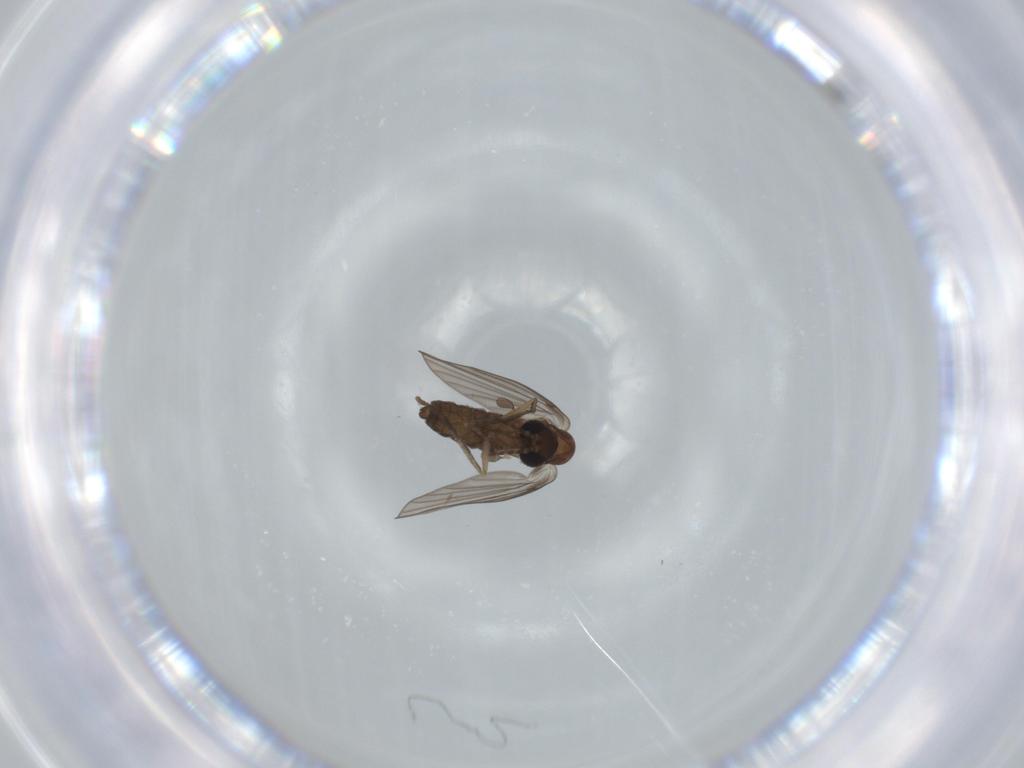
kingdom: Animalia
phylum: Arthropoda
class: Insecta
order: Diptera
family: Psychodidae
